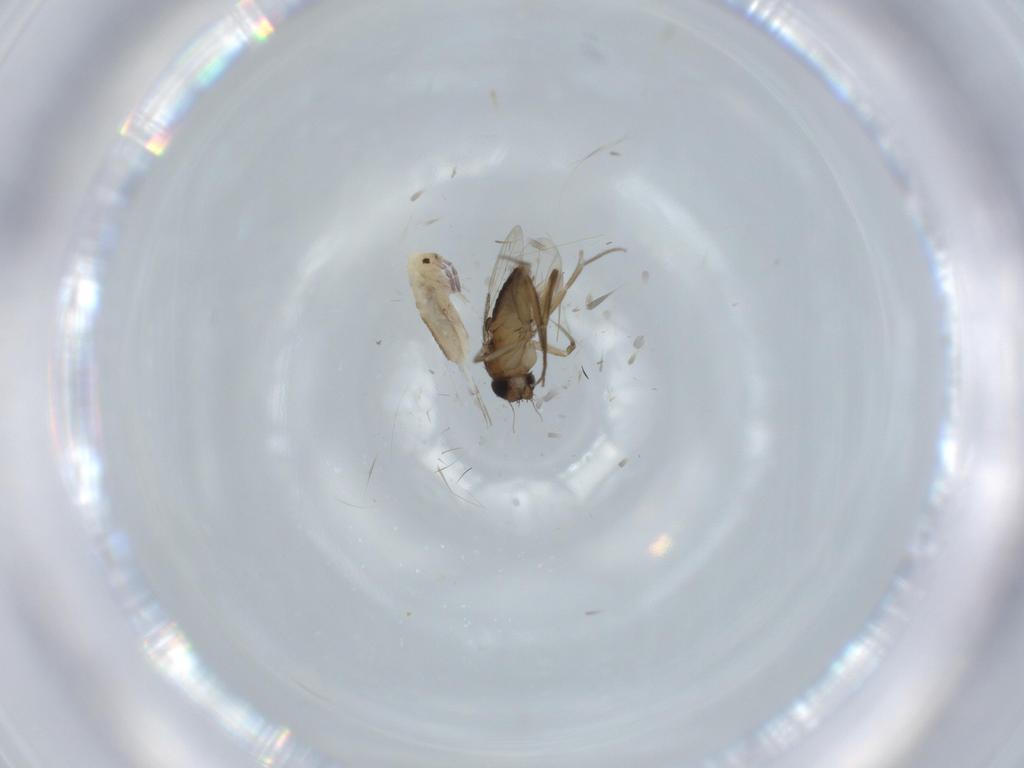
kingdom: Animalia
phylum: Arthropoda
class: Insecta
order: Diptera
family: Phoridae
